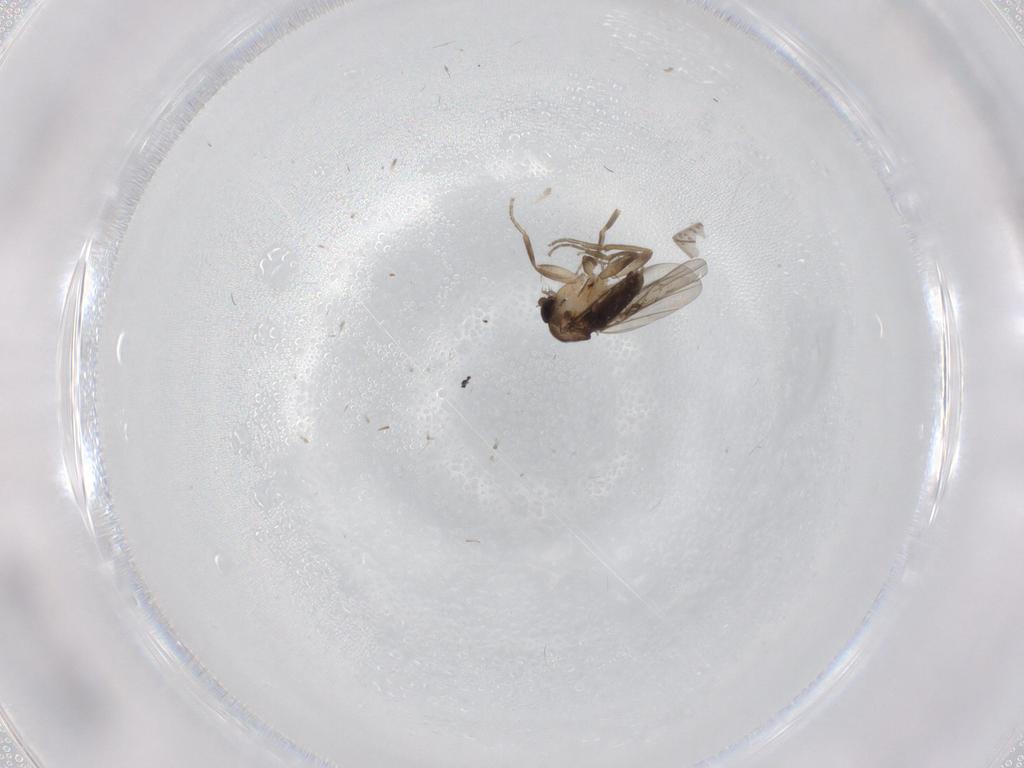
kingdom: Animalia
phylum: Arthropoda
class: Insecta
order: Diptera
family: Phoridae
